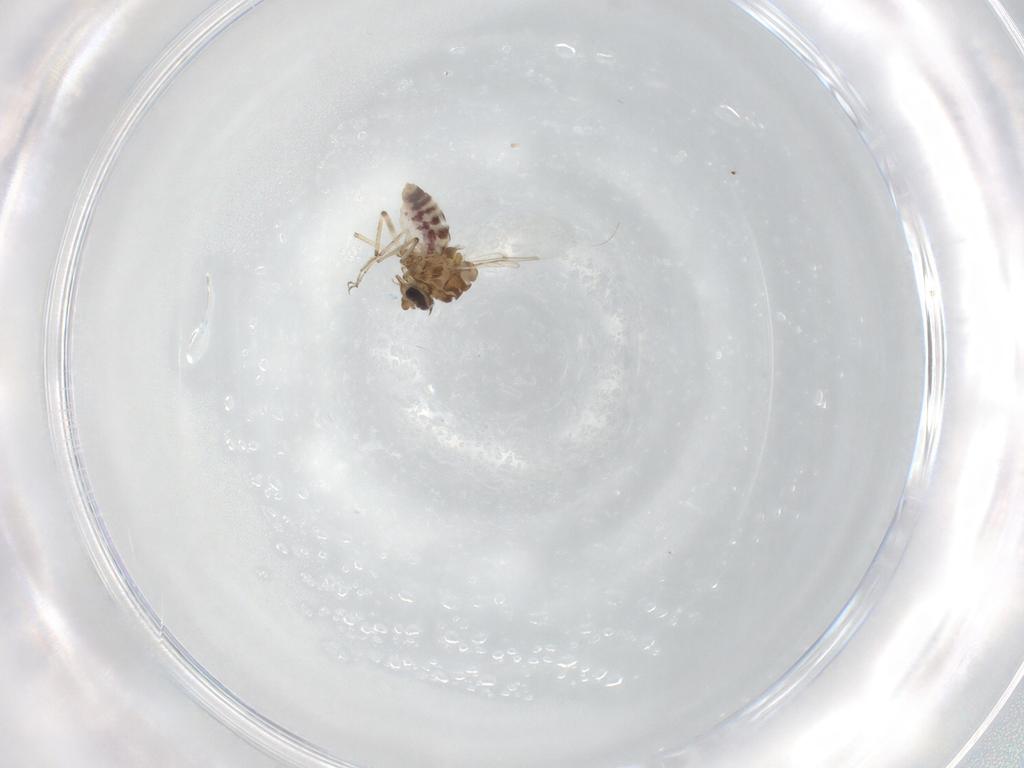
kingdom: Animalia
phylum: Arthropoda
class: Insecta
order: Diptera
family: Ceratopogonidae
